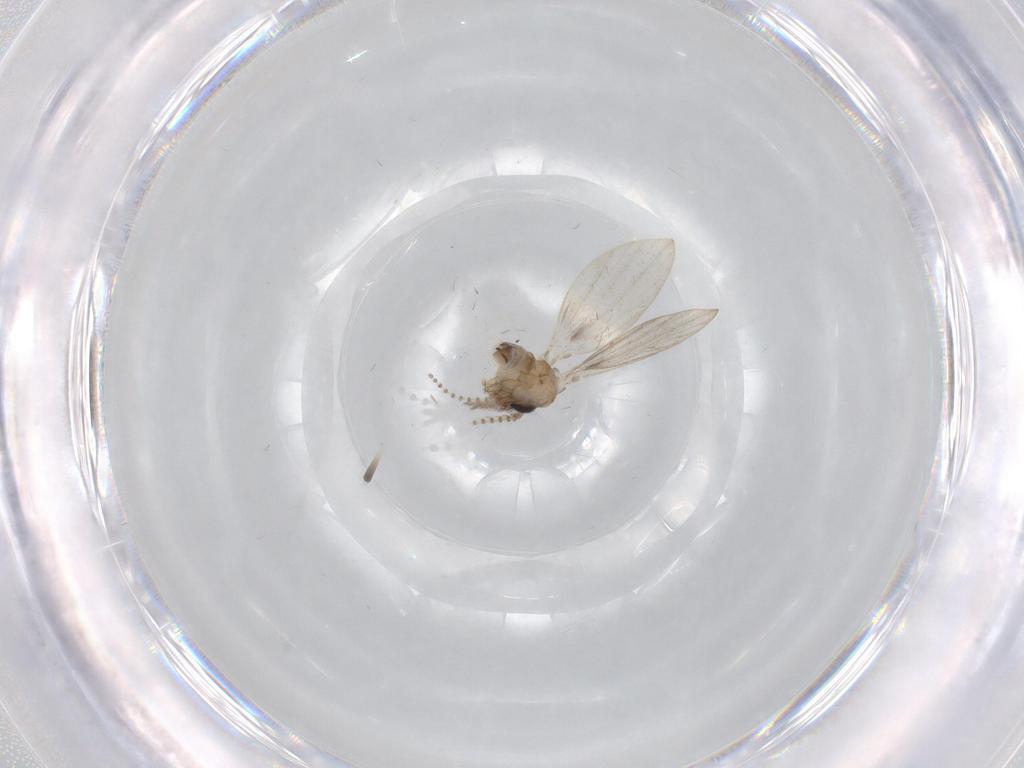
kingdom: Animalia
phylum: Arthropoda
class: Insecta
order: Diptera
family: Psychodidae
